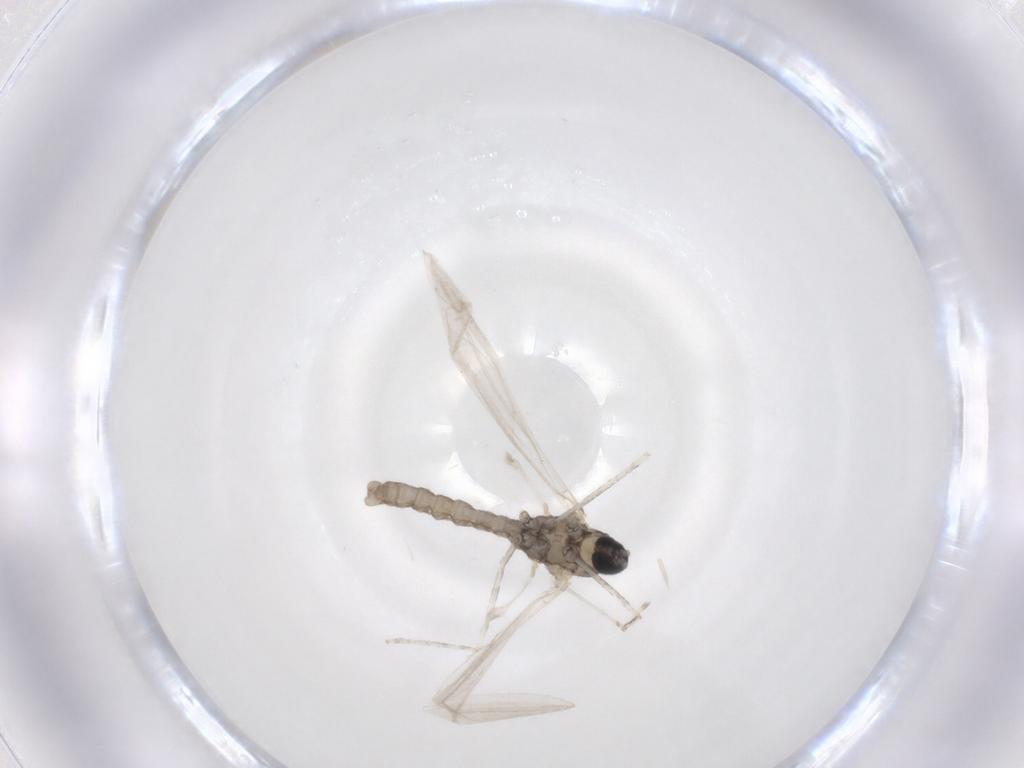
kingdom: Animalia
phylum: Arthropoda
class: Insecta
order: Diptera
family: Cecidomyiidae
